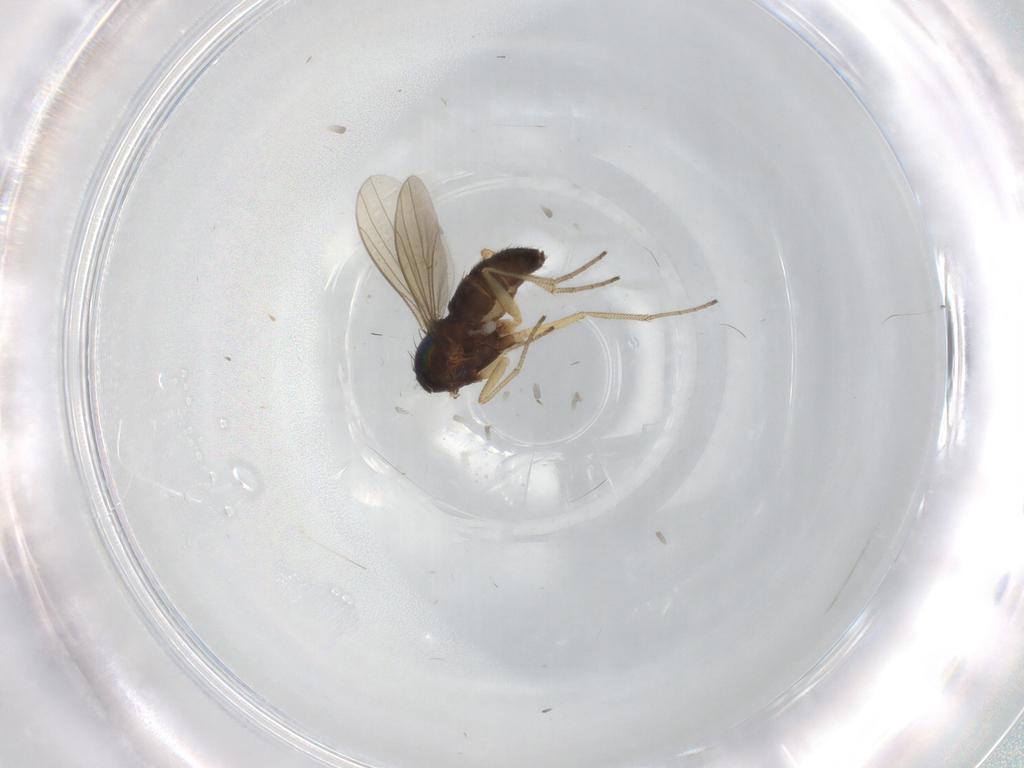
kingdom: Animalia
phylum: Arthropoda
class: Insecta
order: Diptera
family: Dolichopodidae
